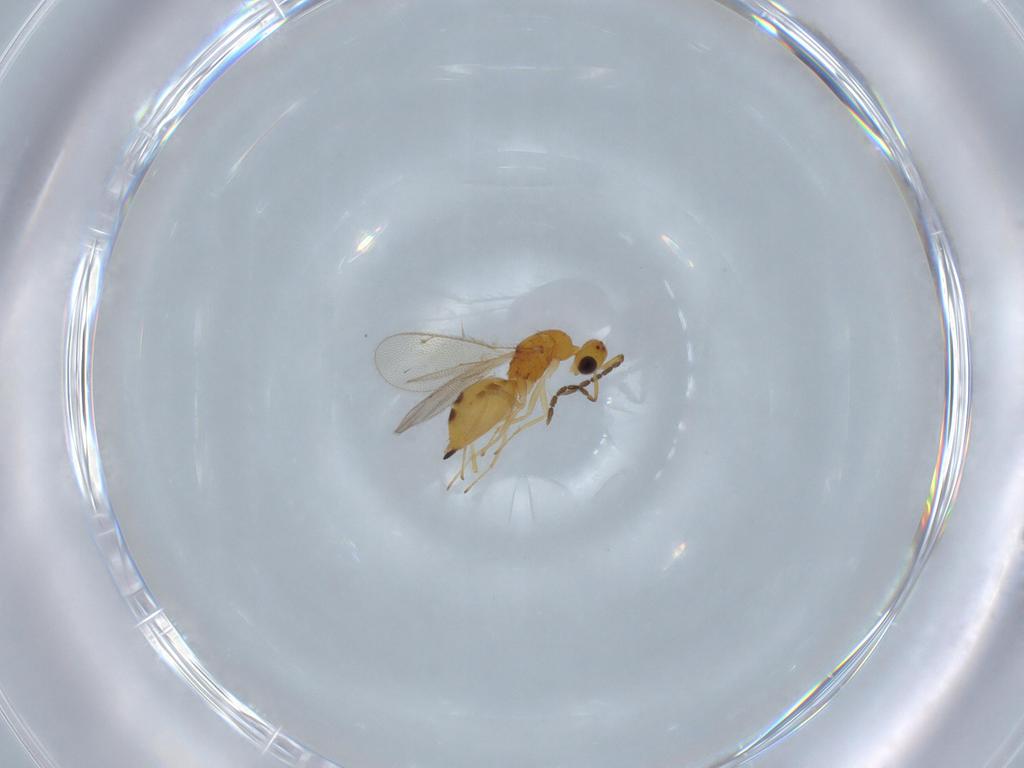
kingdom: Animalia
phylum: Arthropoda
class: Insecta
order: Hymenoptera
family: Eulophidae
